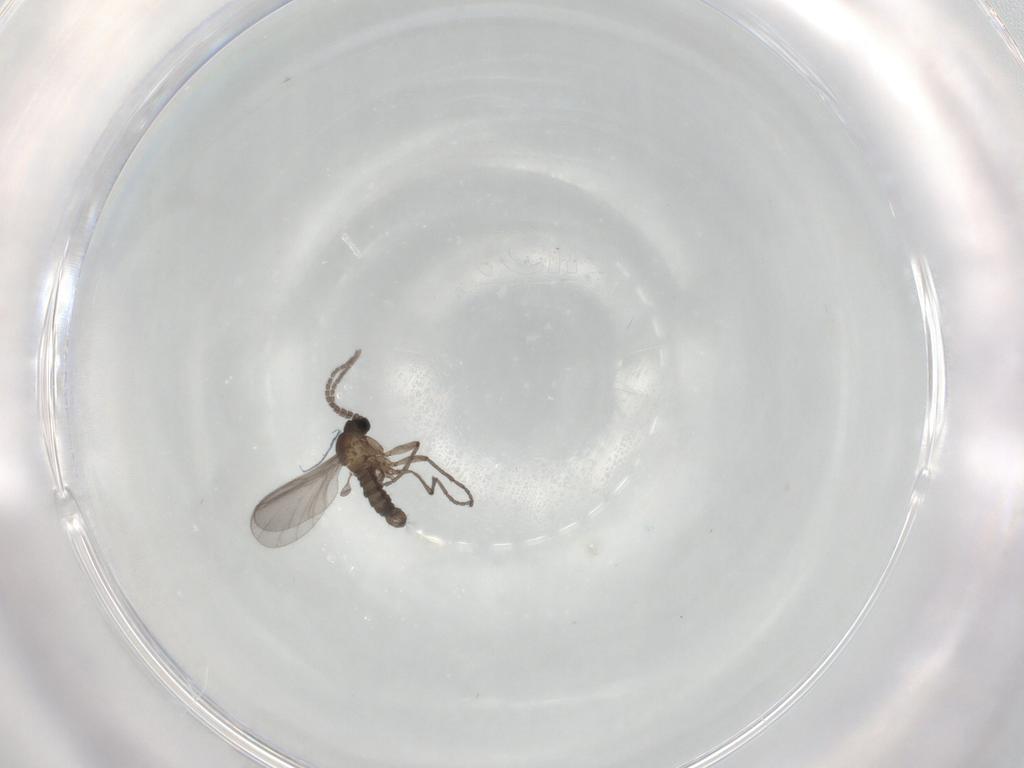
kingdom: Animalia
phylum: Arthropoda
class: Insecta
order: Diptera
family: Sciaridae
